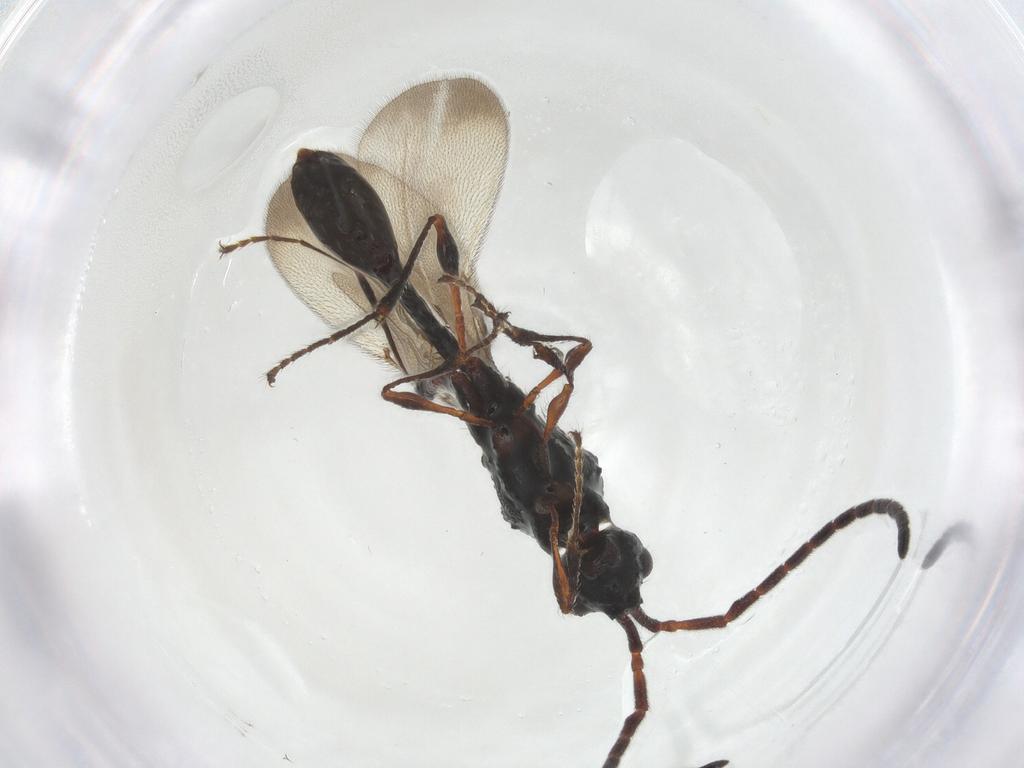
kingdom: Animalia
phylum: Arthropoda
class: Insecta
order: Hymenoptera
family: Diapriidae
